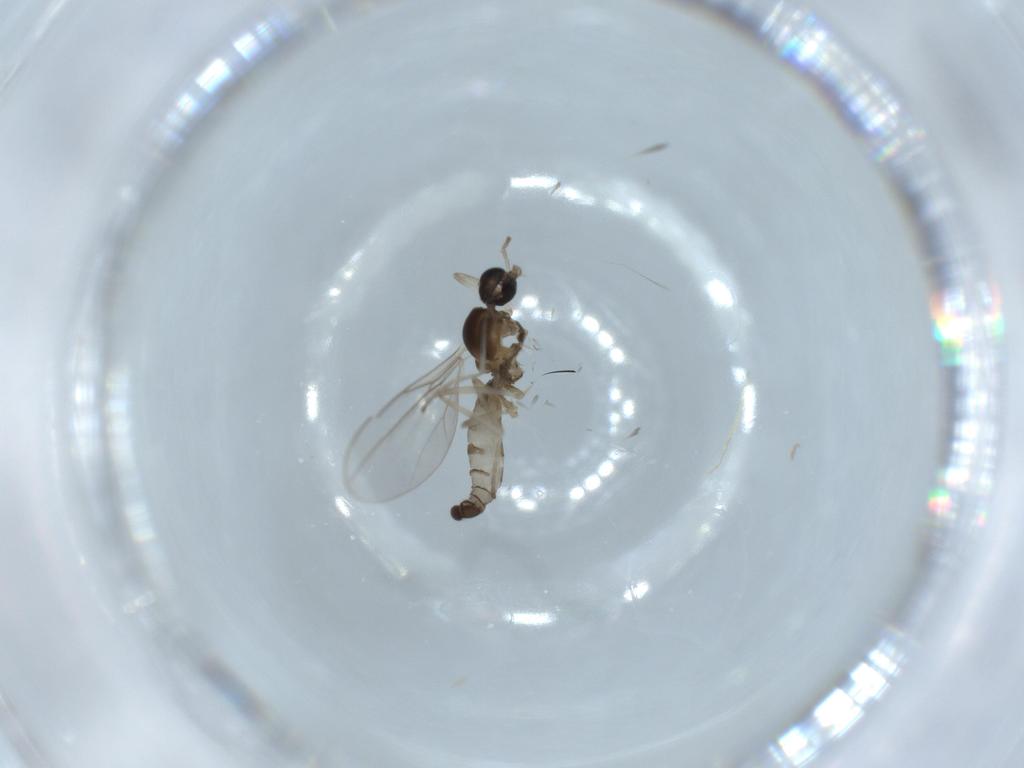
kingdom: Animalia
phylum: Arthropoda
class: Insecta
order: Diptera
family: Cecidomyiidae
